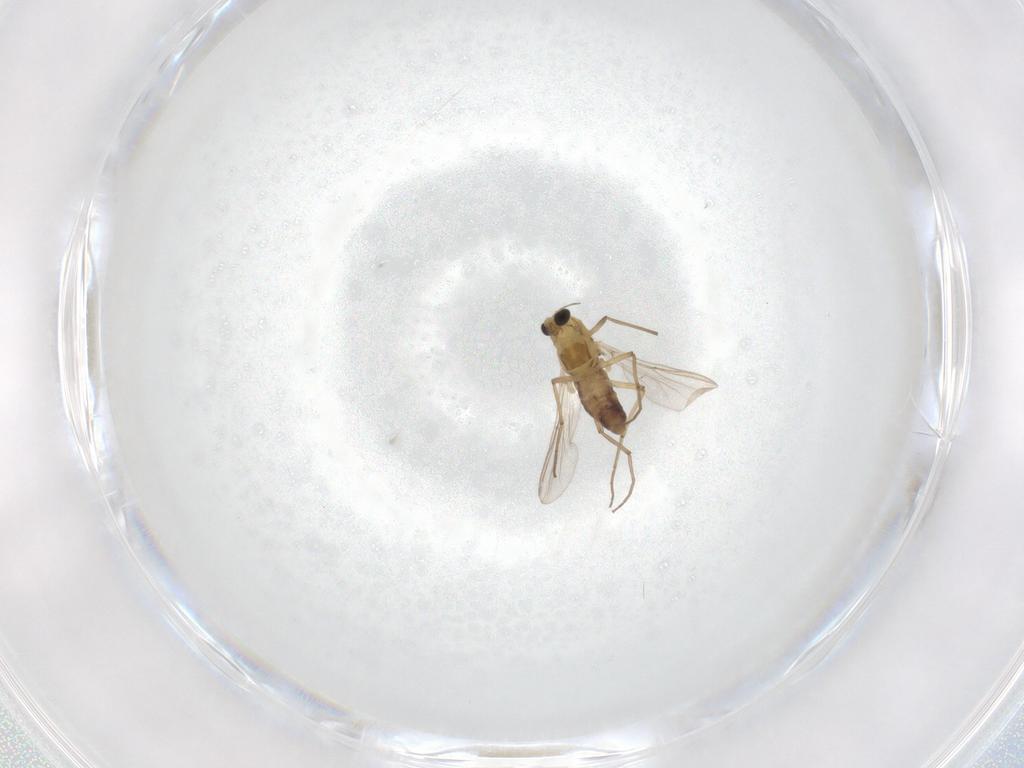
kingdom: Animalia
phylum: Arthropoda
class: Insecta
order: Diptera
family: Chironomidae
